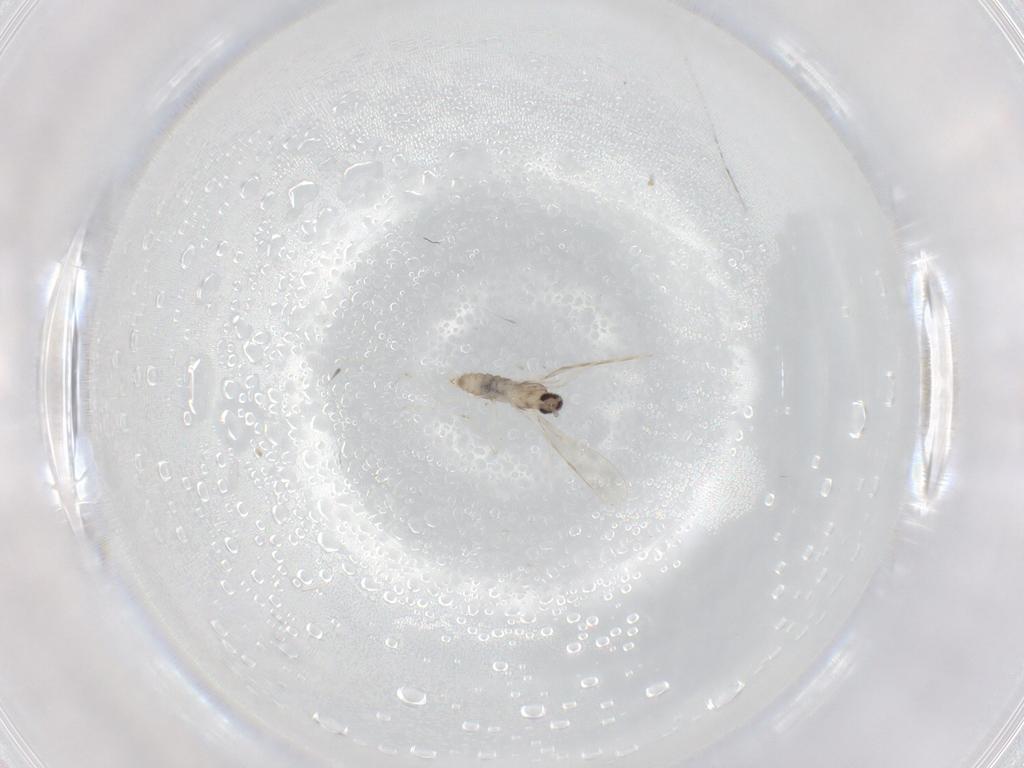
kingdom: Animalia
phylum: Arthropoda
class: Insecta
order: Diptera
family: Cecidomyiidae
